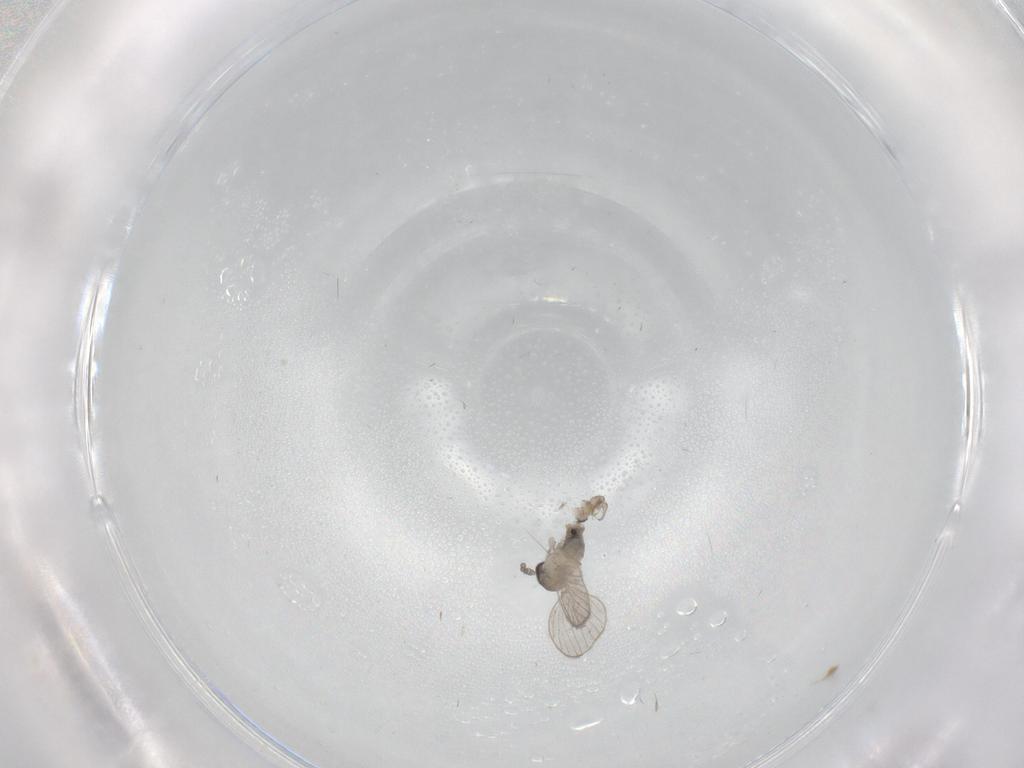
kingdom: Animalia
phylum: Arthropoda
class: Insecta
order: Diptera
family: Psychodidae
